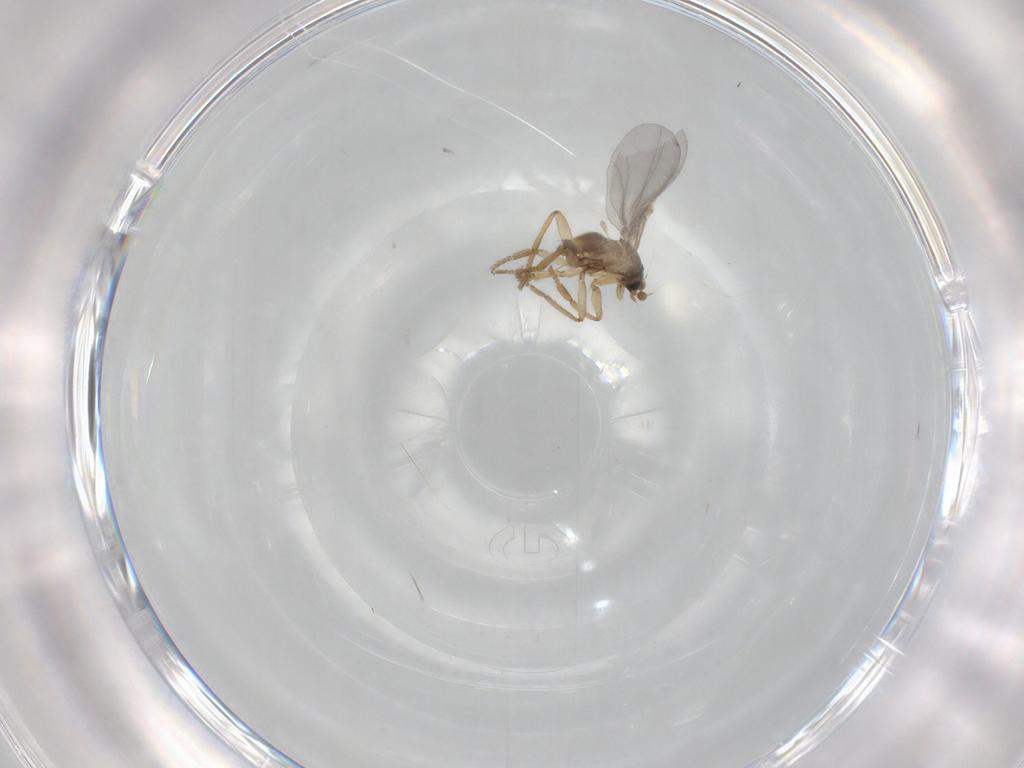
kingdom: Animalia
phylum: Arthropoda
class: Insecta
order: Diptera
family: Phoridae
